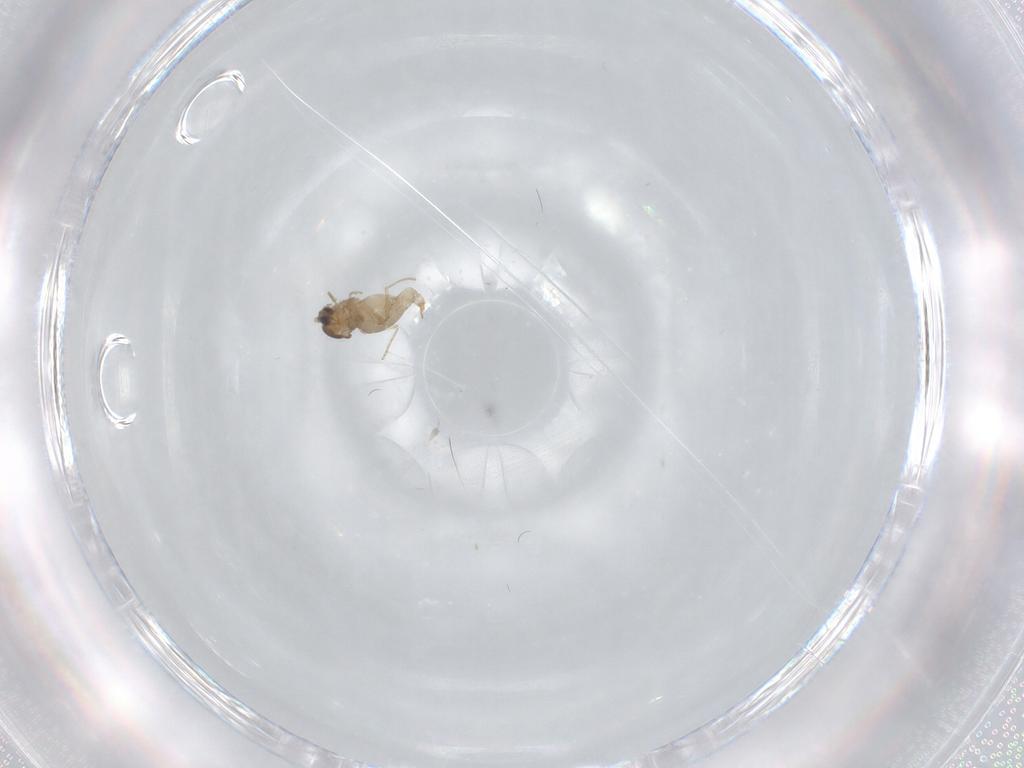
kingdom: Animalia
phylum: Arthropoda
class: Insecta
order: Diptera
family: Cecidomyiidae
